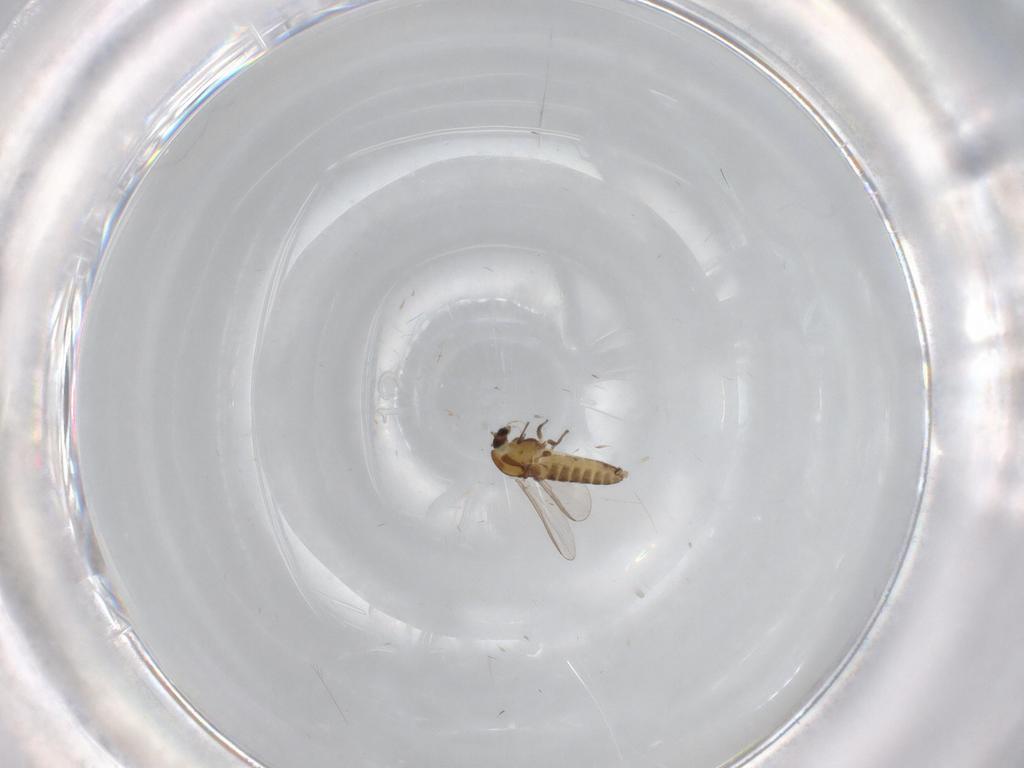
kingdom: Animalia
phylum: Arthropoda
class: Insecta
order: Diptera
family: Chironomidae
